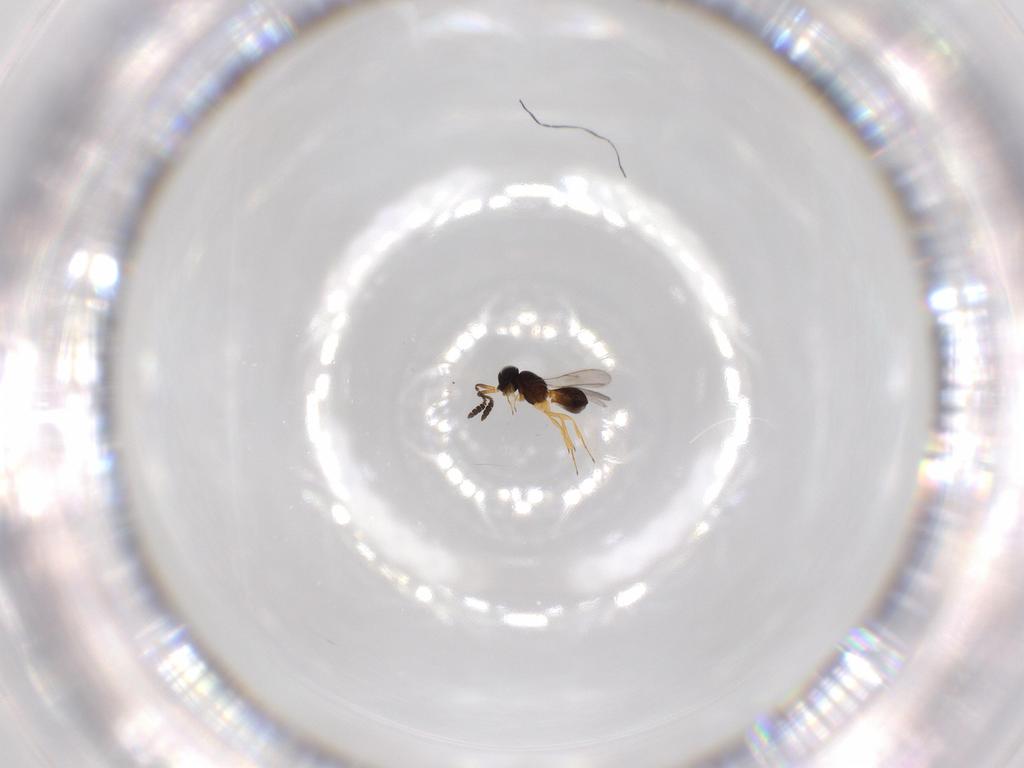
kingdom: Animalia
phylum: Arthropoda
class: Insecta
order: Hymenoptera
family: Scelionidae
